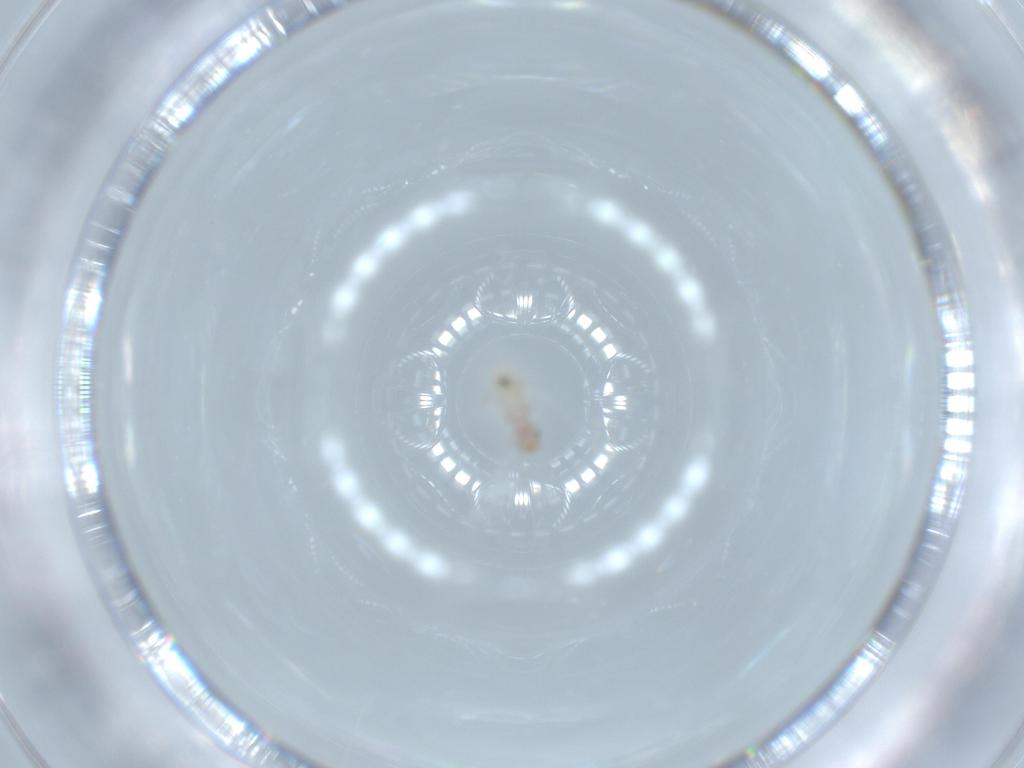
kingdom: Animalia
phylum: Arthropoda
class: Insecta
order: Psocodea
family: Liposcelididae
